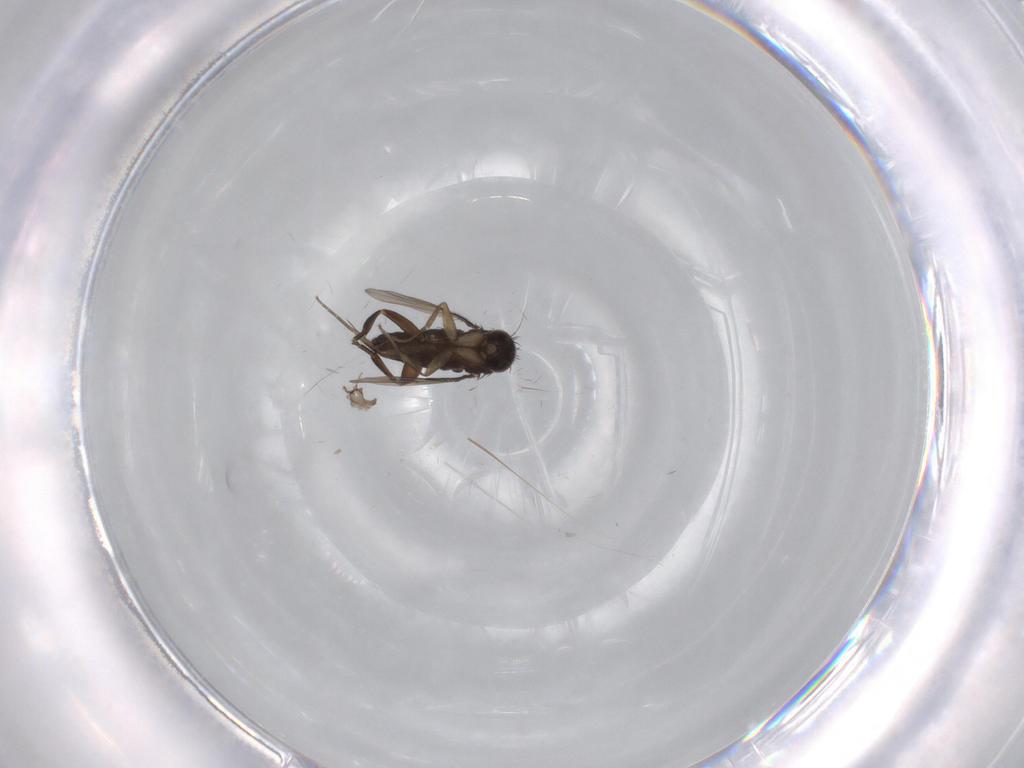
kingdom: Animalia
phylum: Arthropoda
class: Insecta
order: Diptera
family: Phoridae
